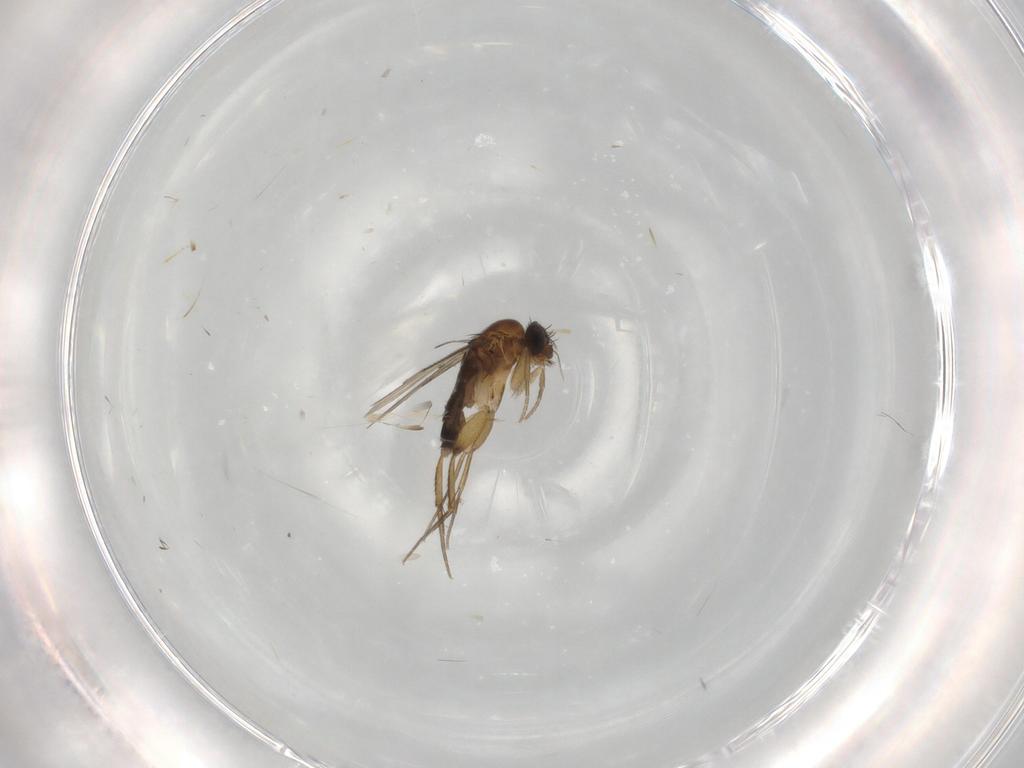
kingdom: Animalia
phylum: Arthropoda
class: Insecta
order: Diptera
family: Phoridae
